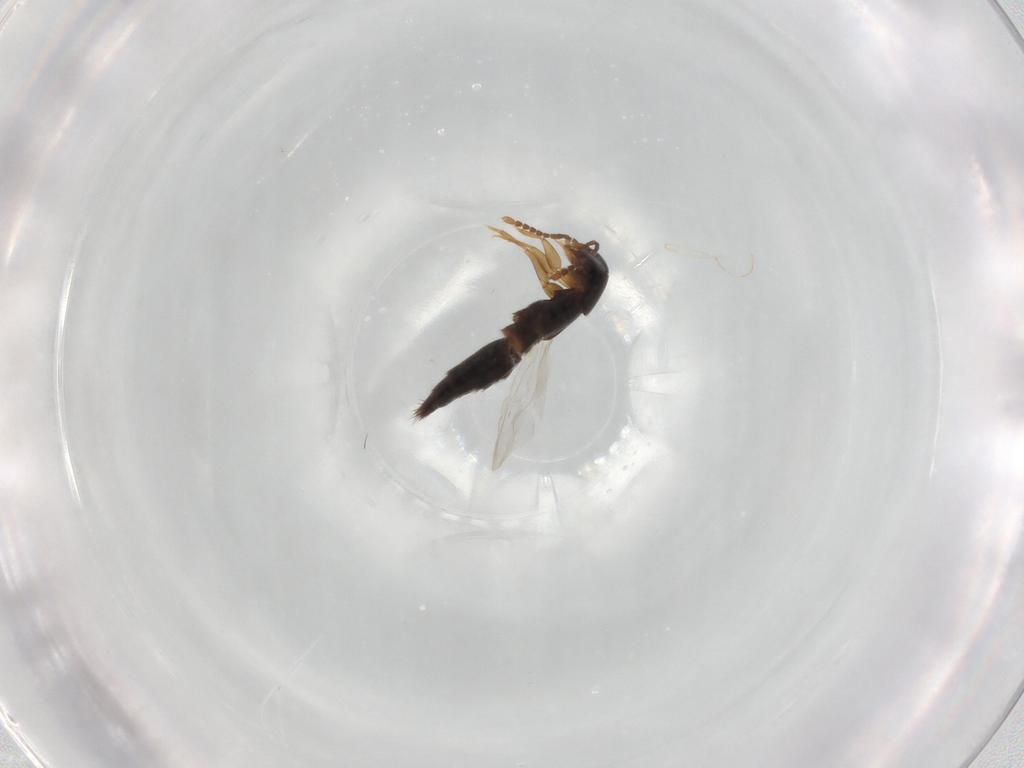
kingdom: Animalia
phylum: Arthropoda
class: Insecta
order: Coleoptera
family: Staphylinidae
